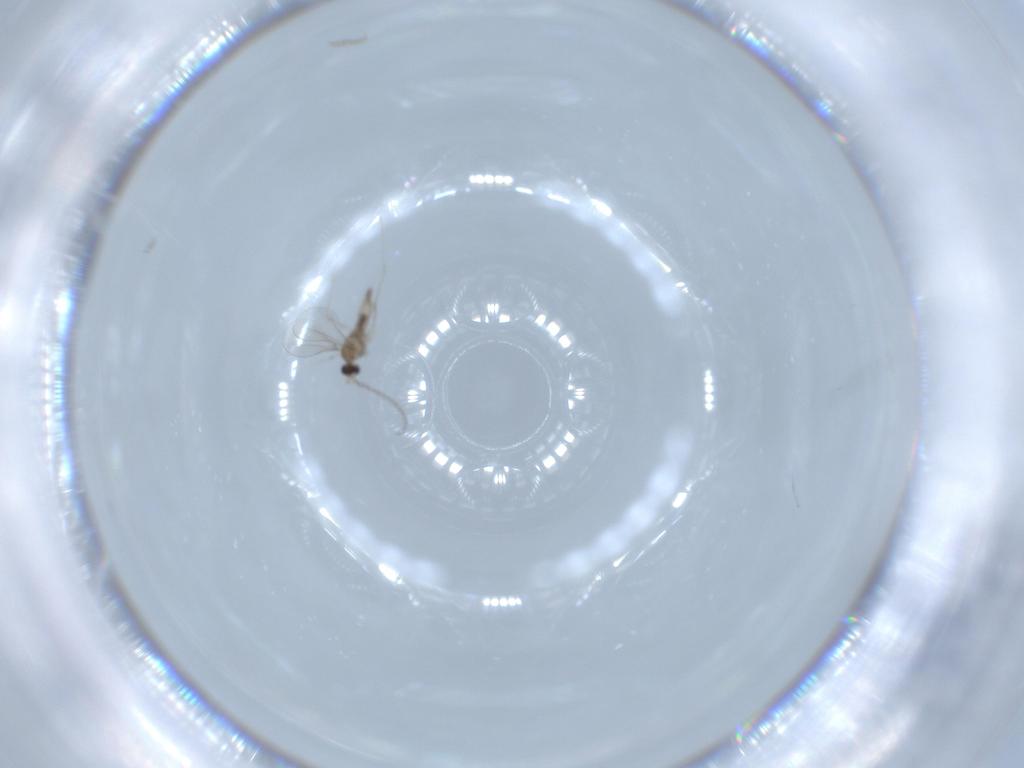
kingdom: Animalia
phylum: Arthropoda
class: Insecta
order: Diptera
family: Cecidomyiidae
